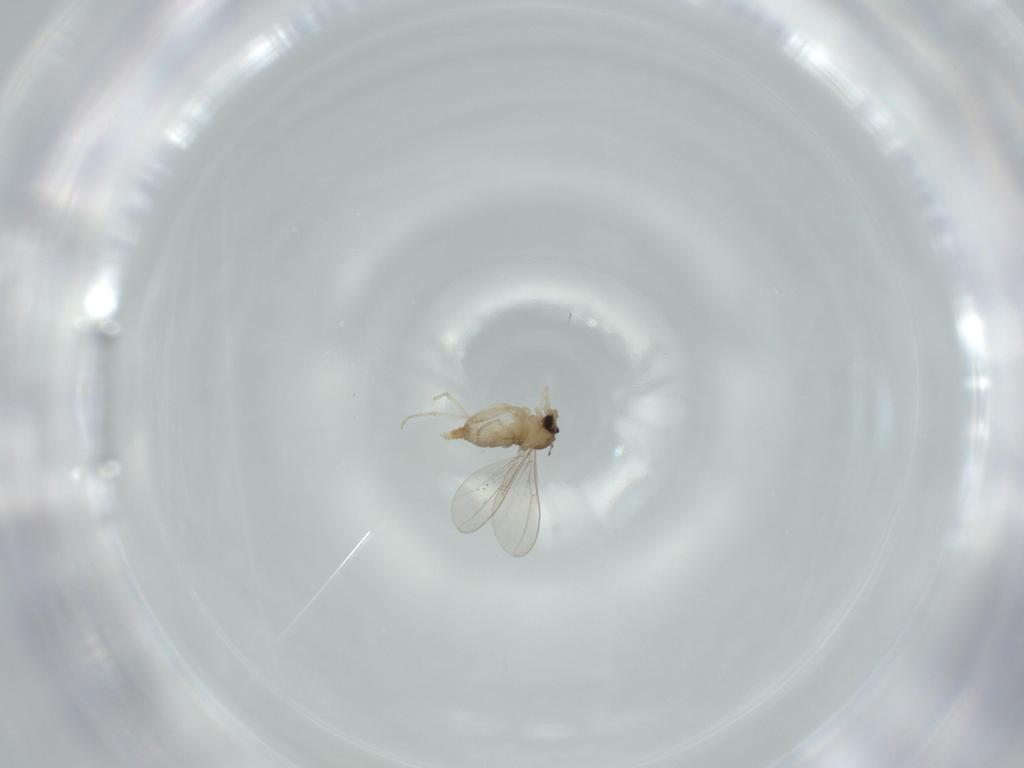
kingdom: Animalia
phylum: Arthropoda
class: Insecta
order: Diptera
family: Cecidomyiidae
